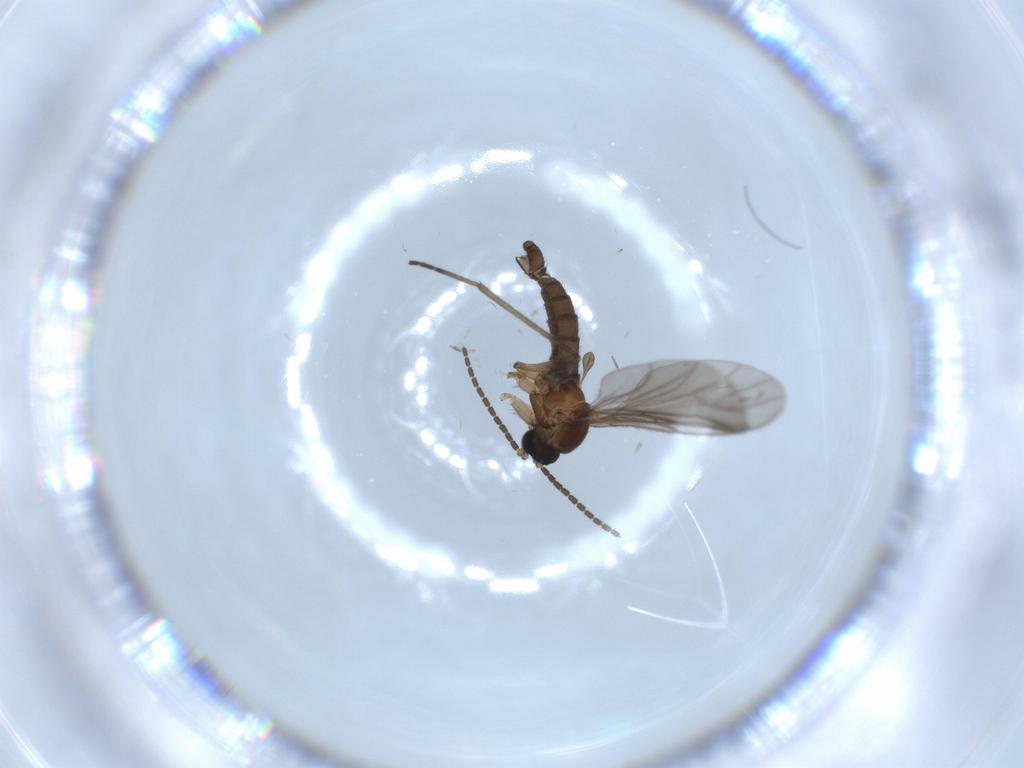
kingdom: Animalia
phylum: Arthropoda
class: Insecta
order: Diptera
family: Sciaridae
